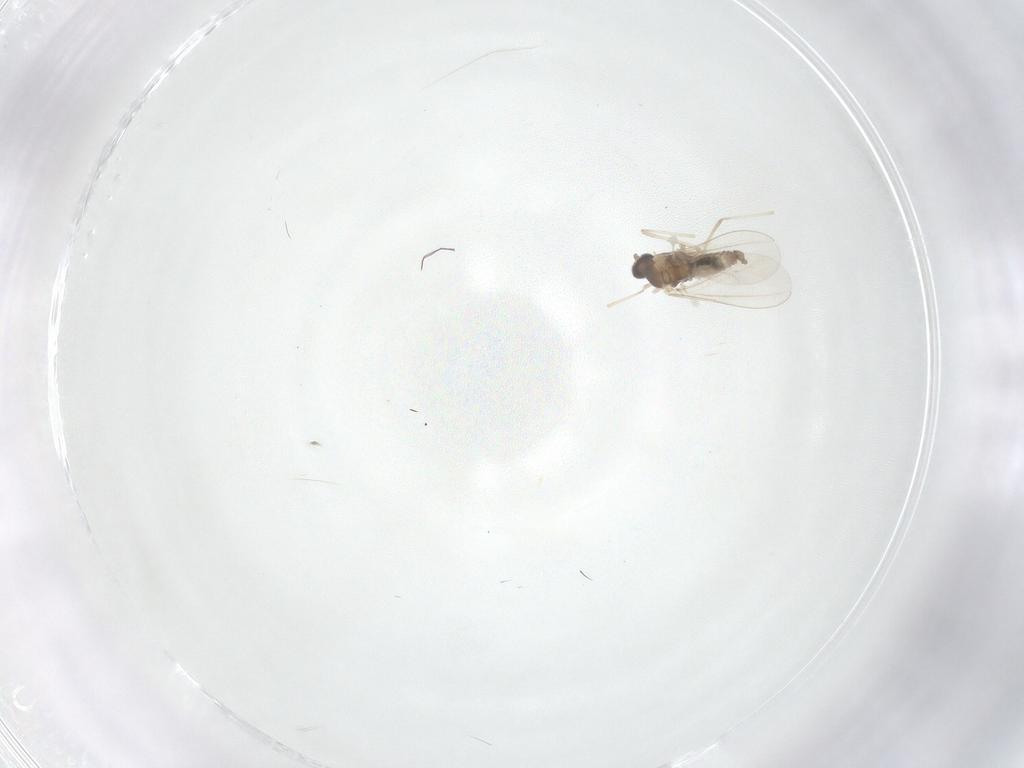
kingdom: Animalia
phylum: Arthropoda
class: Insecta
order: Diptera
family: Cecidomyiidae
